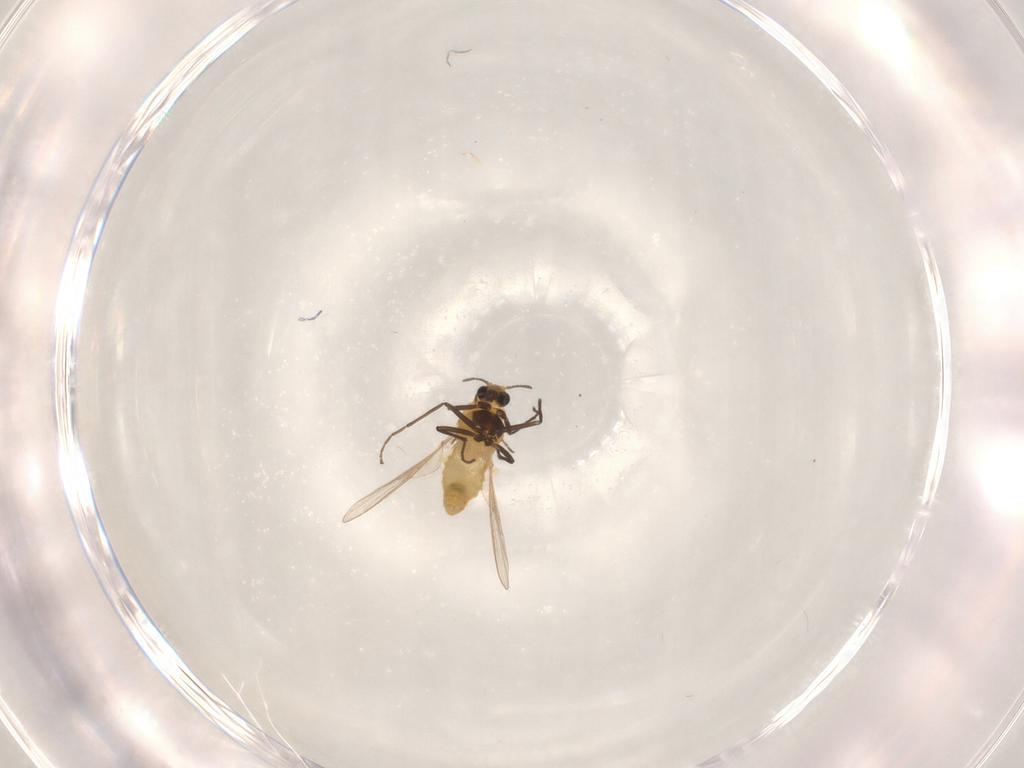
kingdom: Animalia
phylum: Arthropoda
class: Insecta
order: Diptera
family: Chironomidae
